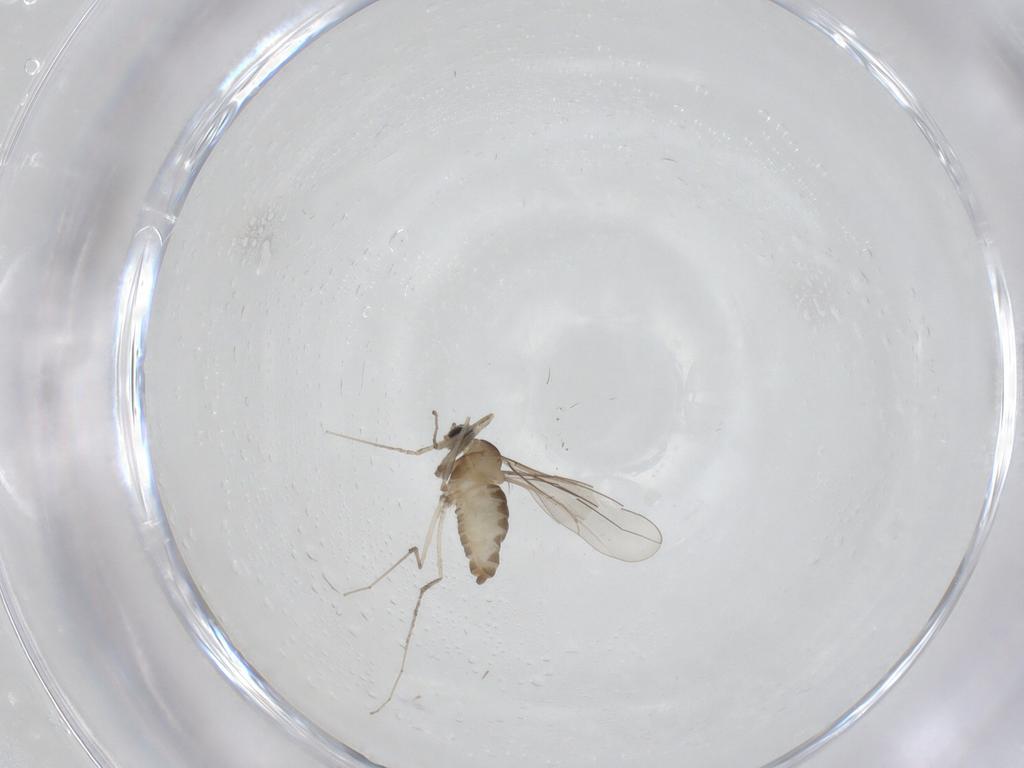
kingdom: Animalia
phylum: Arthropoda
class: Insecta
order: Diptera
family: Cecidomyiidae
